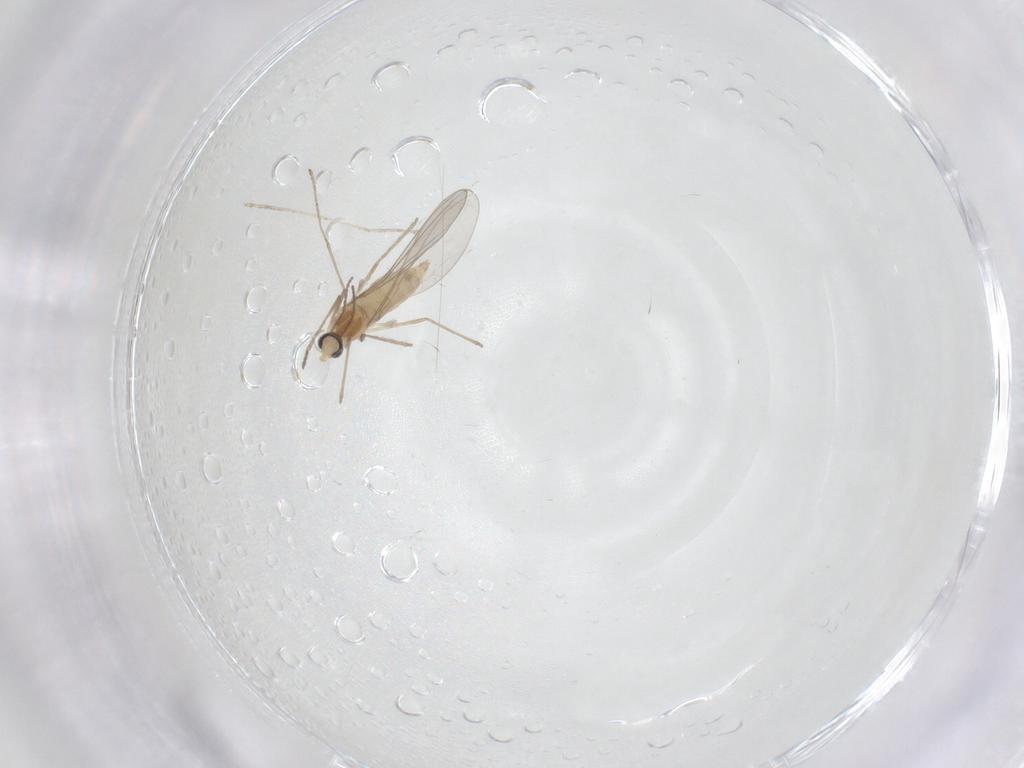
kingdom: Animalia
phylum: Arthropoda
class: Insecta
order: Diptera
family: Cecidomyiidae
